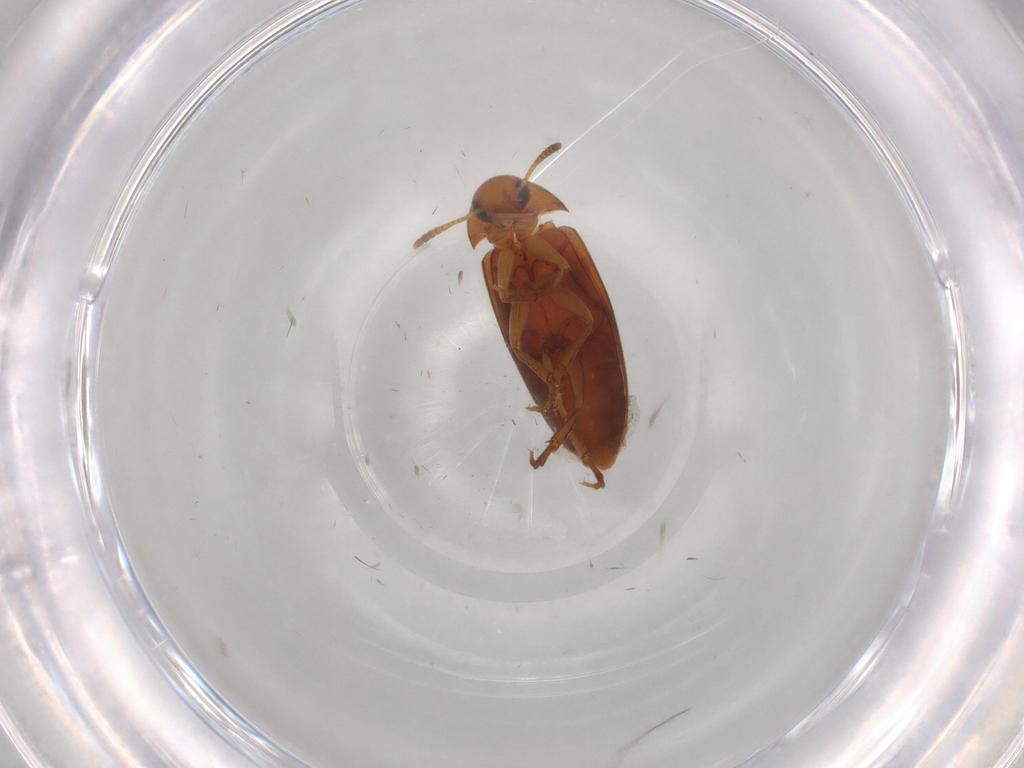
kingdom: Animalia
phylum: Arthropoda
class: Insecta
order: Coleoptera
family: Scraptiidae
